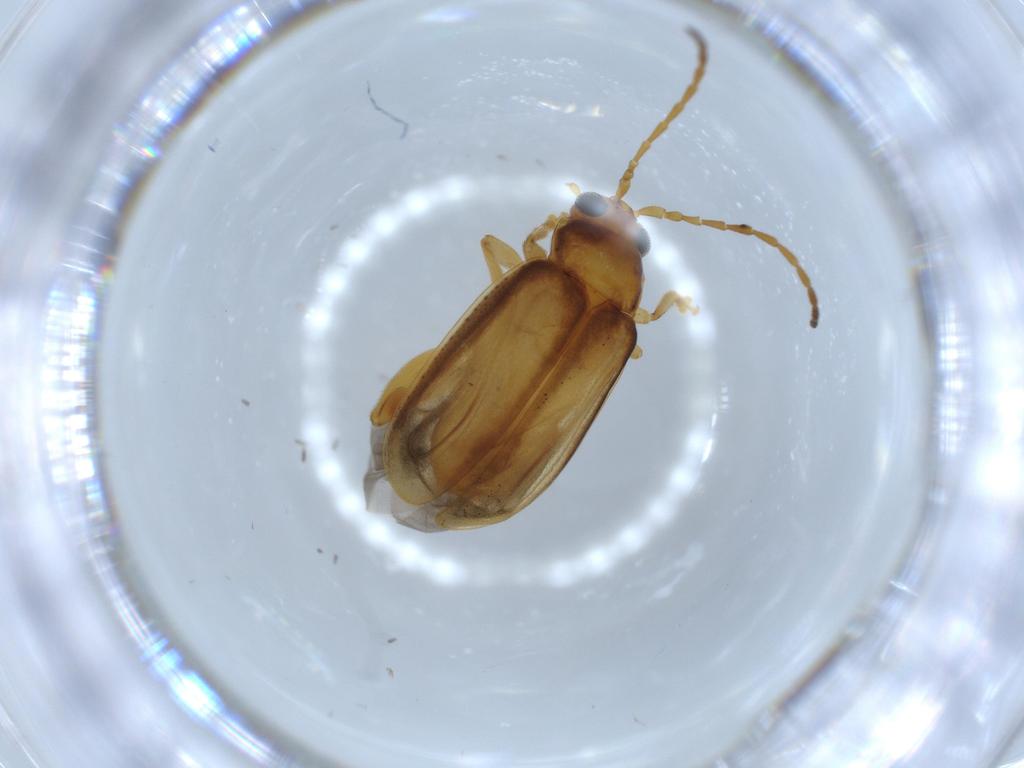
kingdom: Animalia
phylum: Arthropoda
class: Insecta
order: Coleoptera
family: Chrysomelidae
